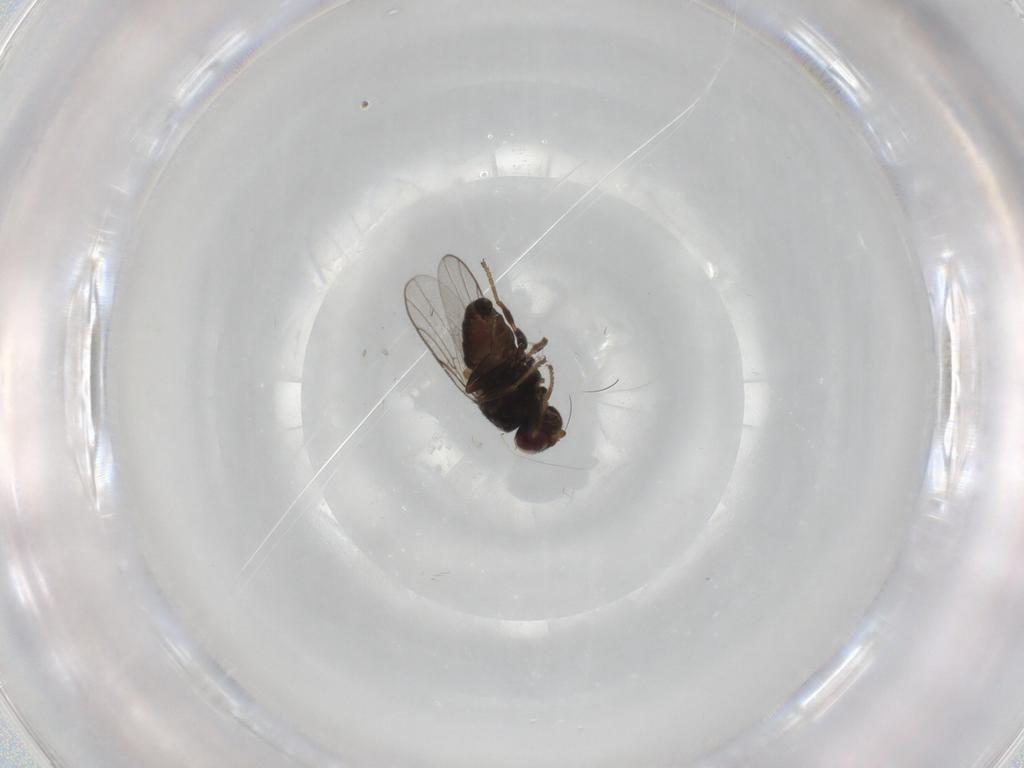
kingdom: Animalia
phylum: Arthropoda
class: Insecta
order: Diptera
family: Chloropidae
